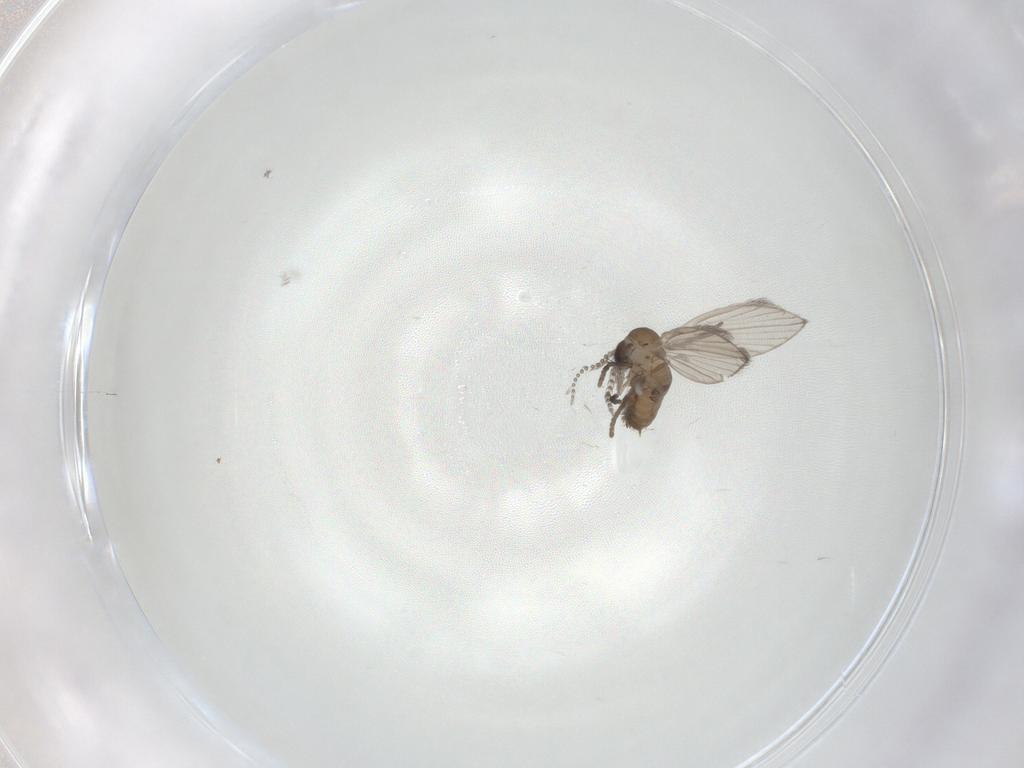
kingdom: Animalia
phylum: Arthropoda
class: Insecta
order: Diptera
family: Psychodidae
